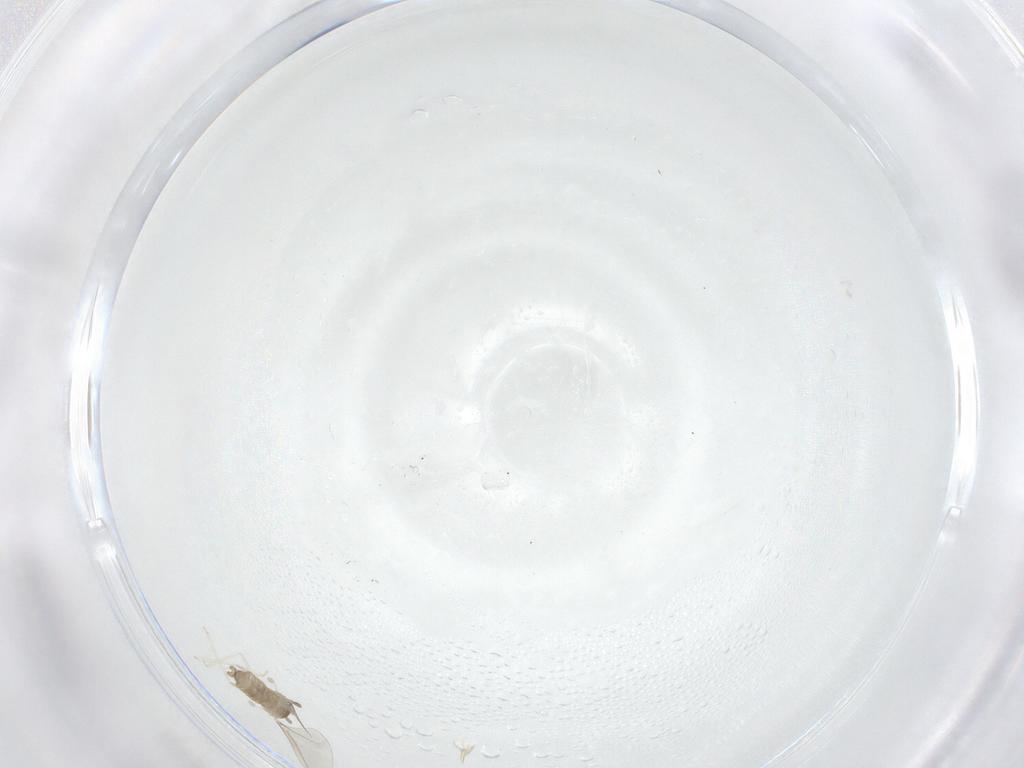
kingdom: Animalia
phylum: Arthropoda
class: Insecta
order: Diptera
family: Cecidomyiidae
